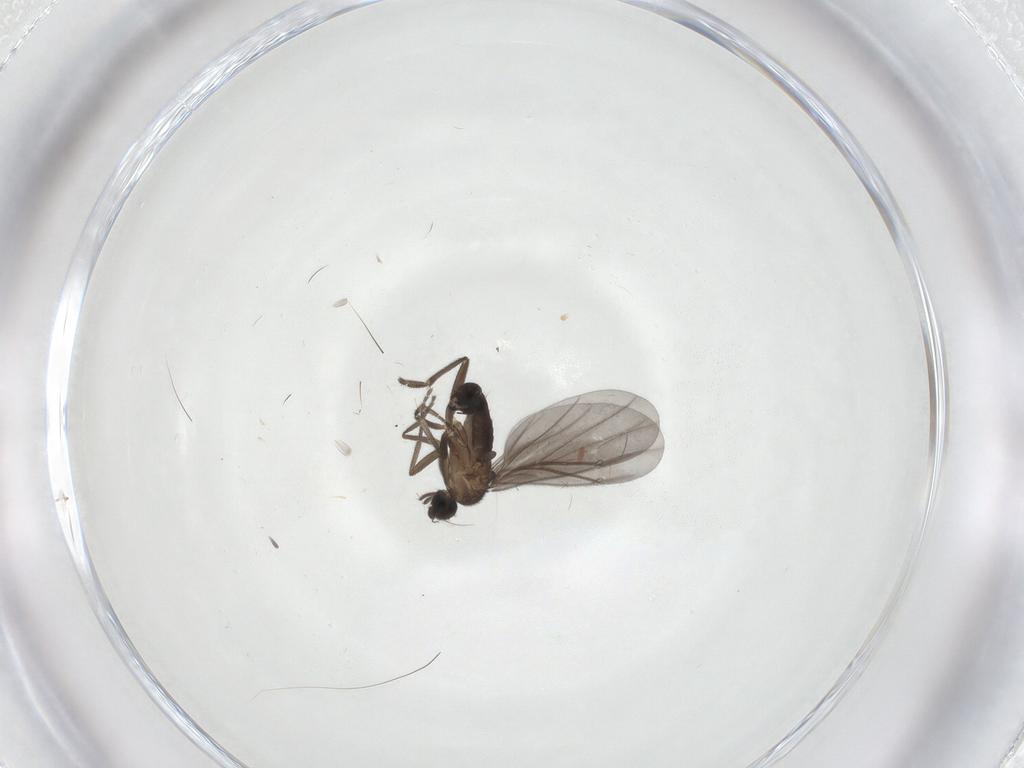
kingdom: Animalia
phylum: Arthropoda
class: Insecta
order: Diptera
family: Phoridae
